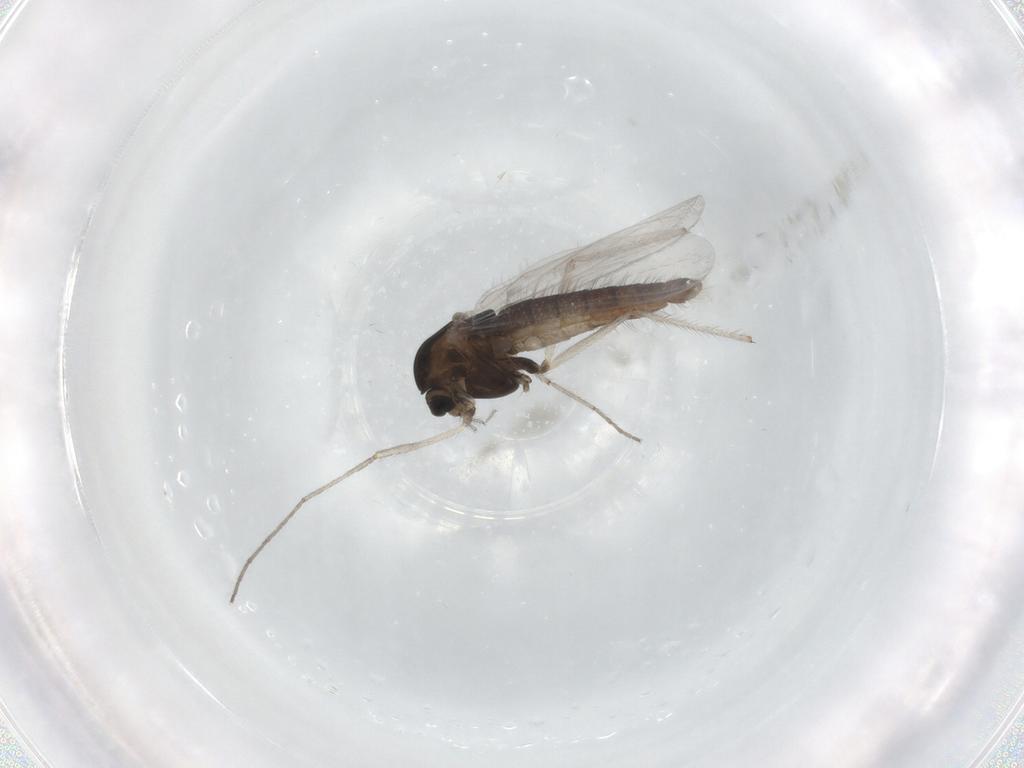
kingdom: Animalia
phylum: Arthropoda
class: Insecta
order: Diptera
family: Chironomidae
